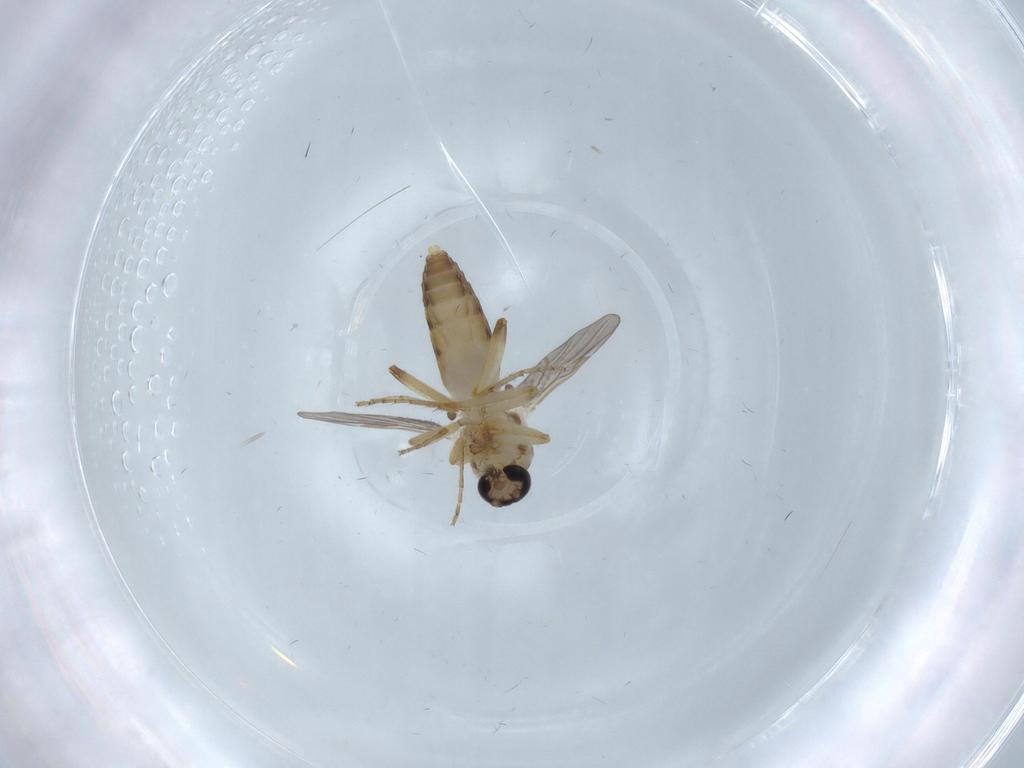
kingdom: Animalia
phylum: Arthropoda
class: Insecta
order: Diptera
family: Ceratopogonidae
